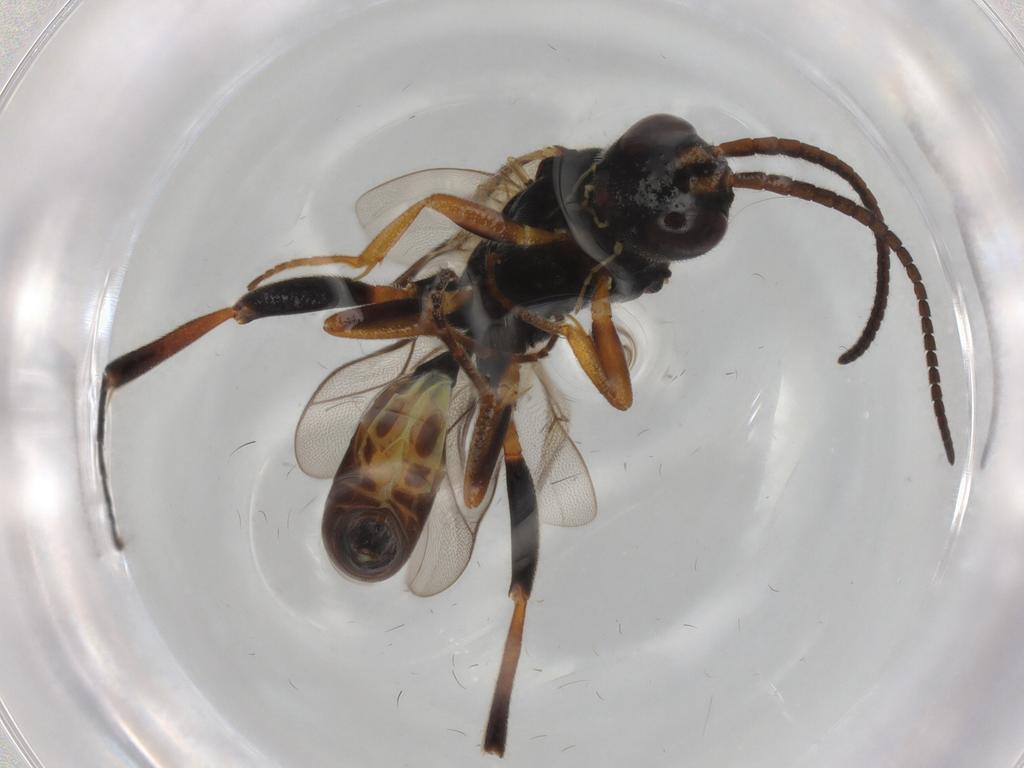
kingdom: Animalia
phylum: Arthropoda
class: Insecta
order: Hymenoptera
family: Ichneumonidae
